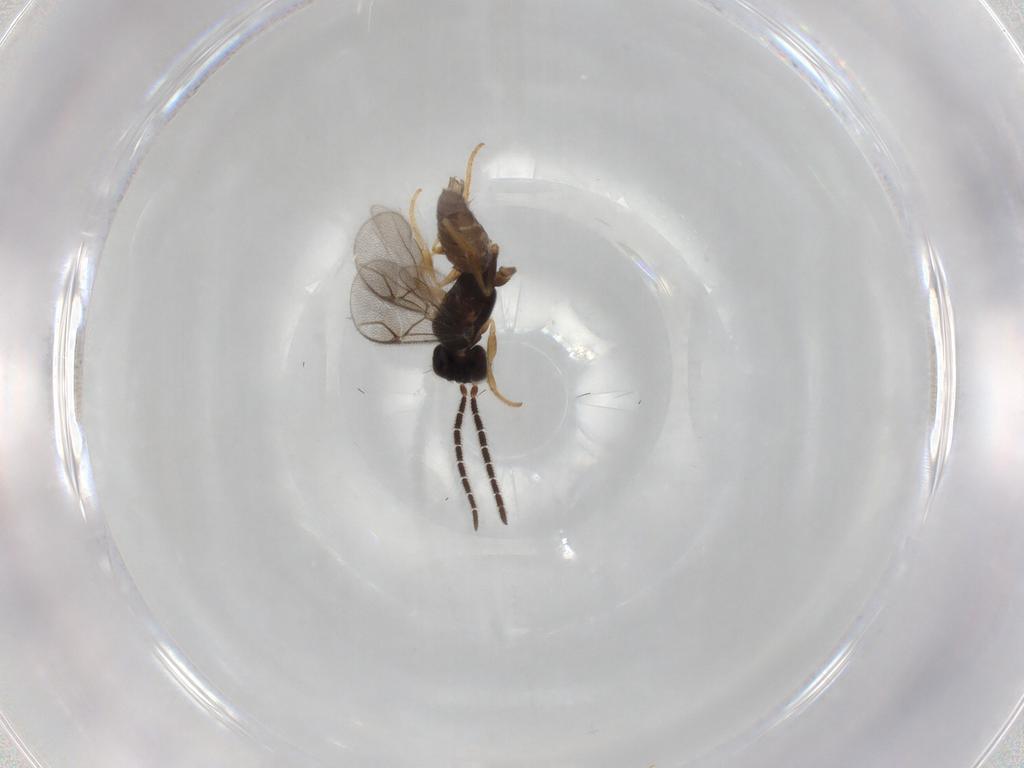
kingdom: Animalia
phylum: Arthropoda
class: Insecta
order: Hymenoptera
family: Dryinidae
